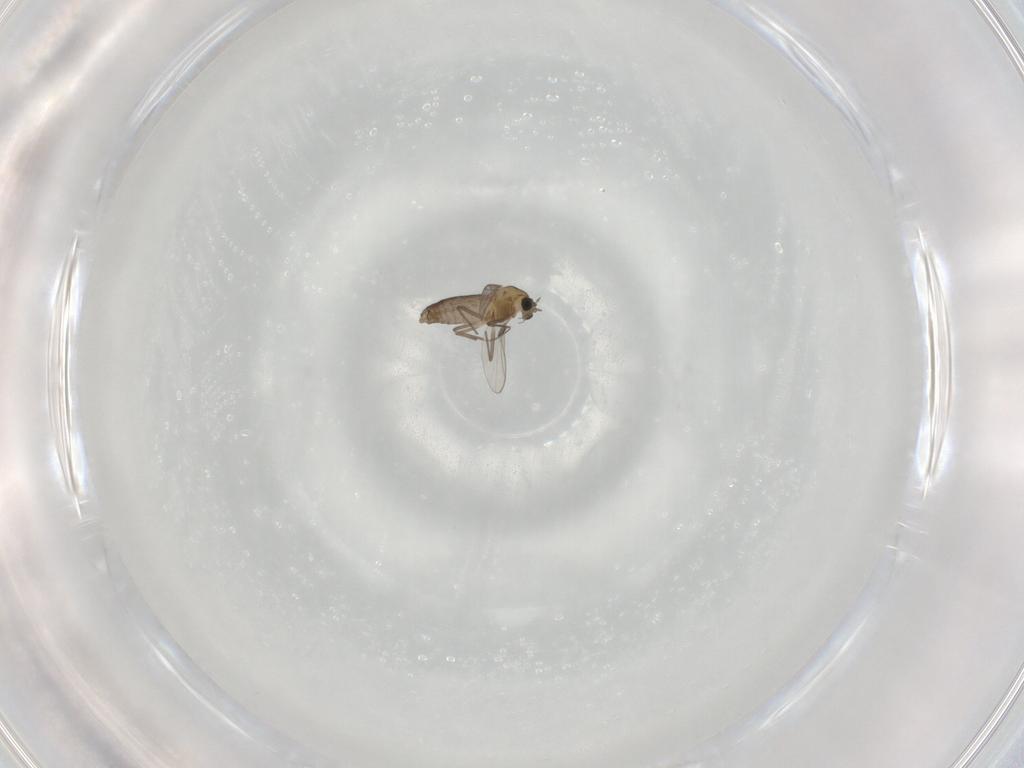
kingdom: Animalia
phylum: Arthropoda
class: Insecta
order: Diptera
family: Chironomidae
